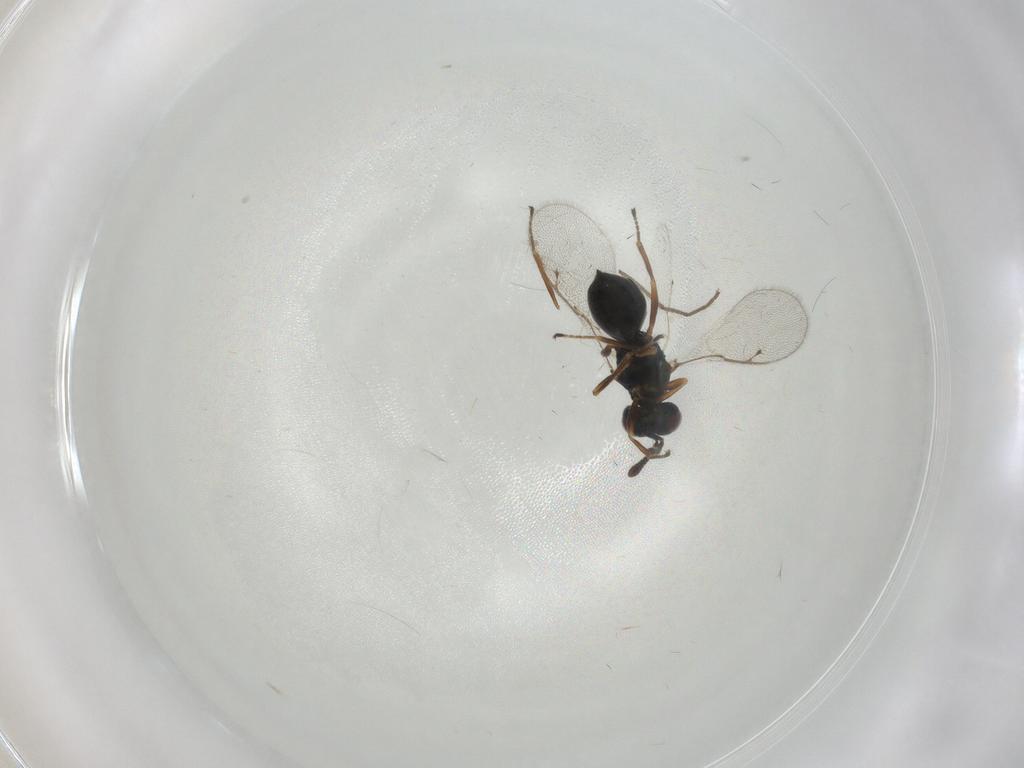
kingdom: Animalia
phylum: Arthropoda
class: Insecta
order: Hymenoptera
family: Pteromalidae
